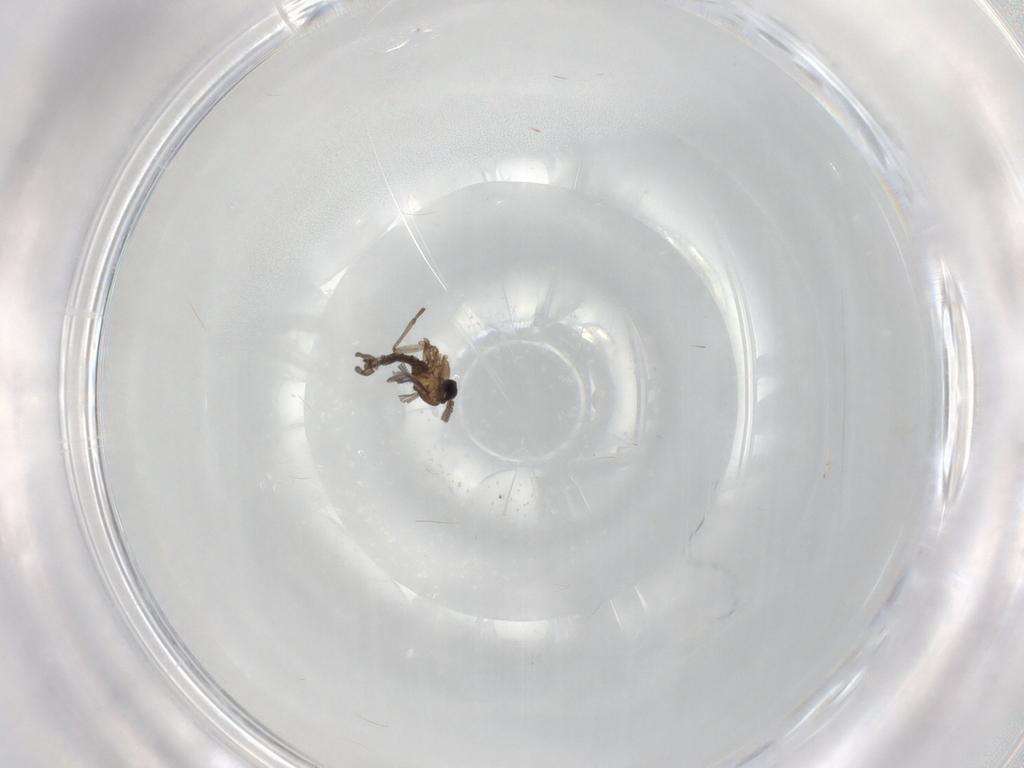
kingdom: Animalia
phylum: Arthropoda
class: Insecta
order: Diptera
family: Sciaridae
